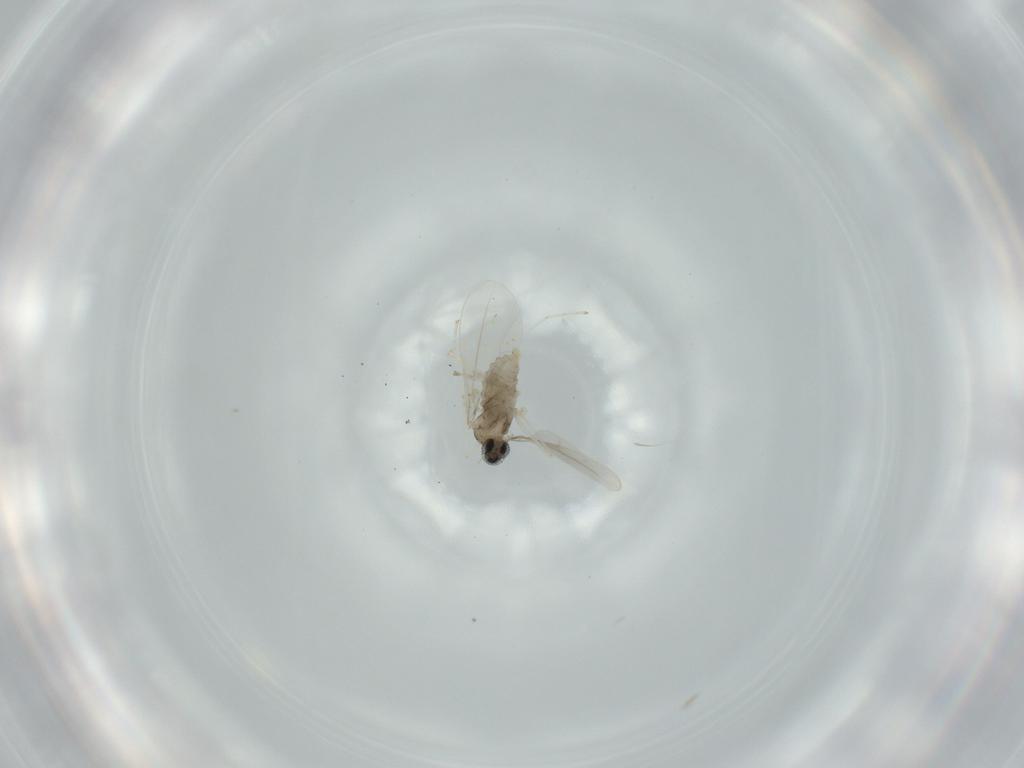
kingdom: Animalia
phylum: Arthropoda
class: Insecta
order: Diptera
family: Cecidomyiidae
